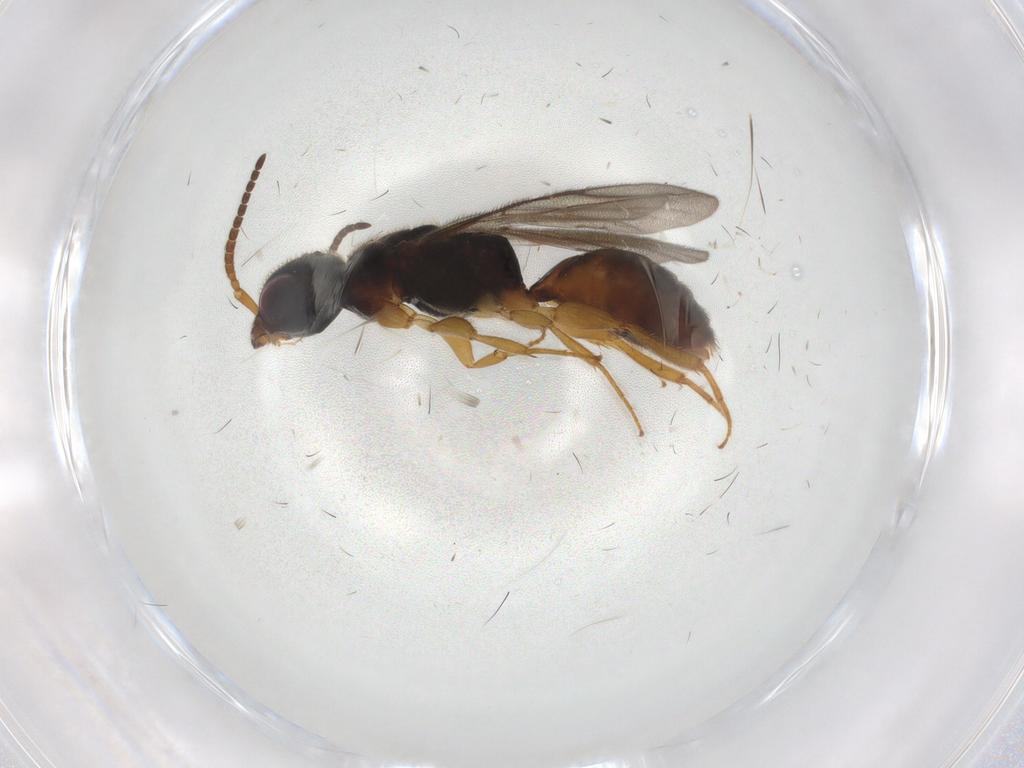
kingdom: Animalia
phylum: Arthropoda
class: Insecta
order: Hymenoptera
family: Bethylidae
